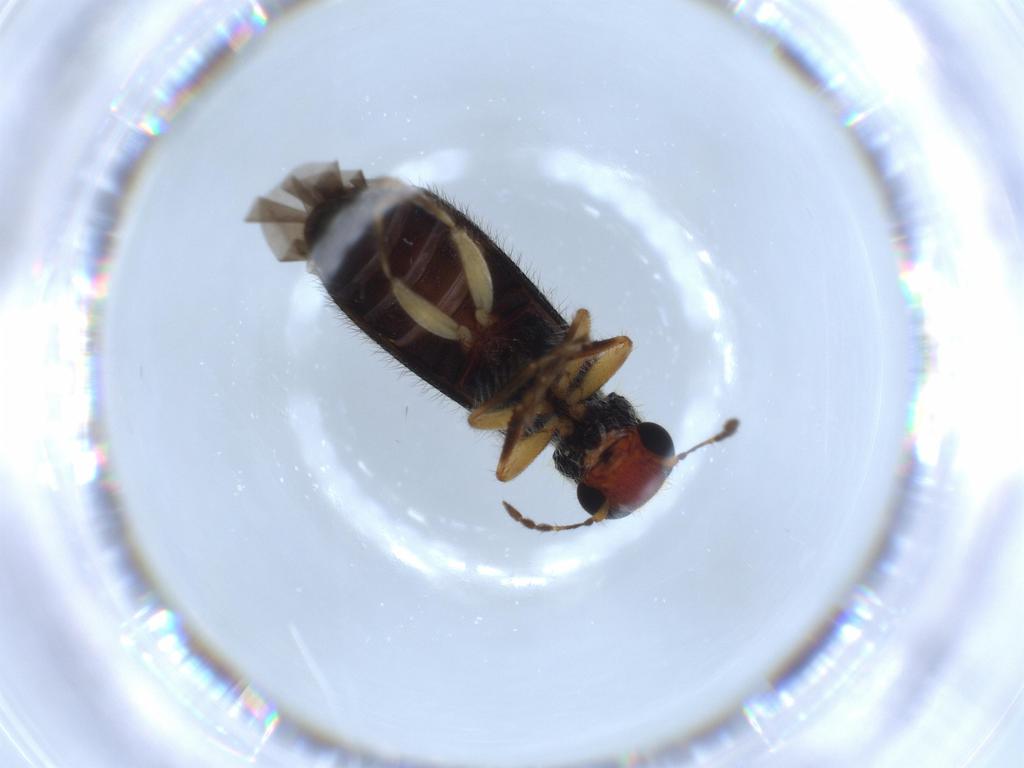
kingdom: Animalia
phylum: Arthropoda
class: Insecta
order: Coleoptera
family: Cleridae
